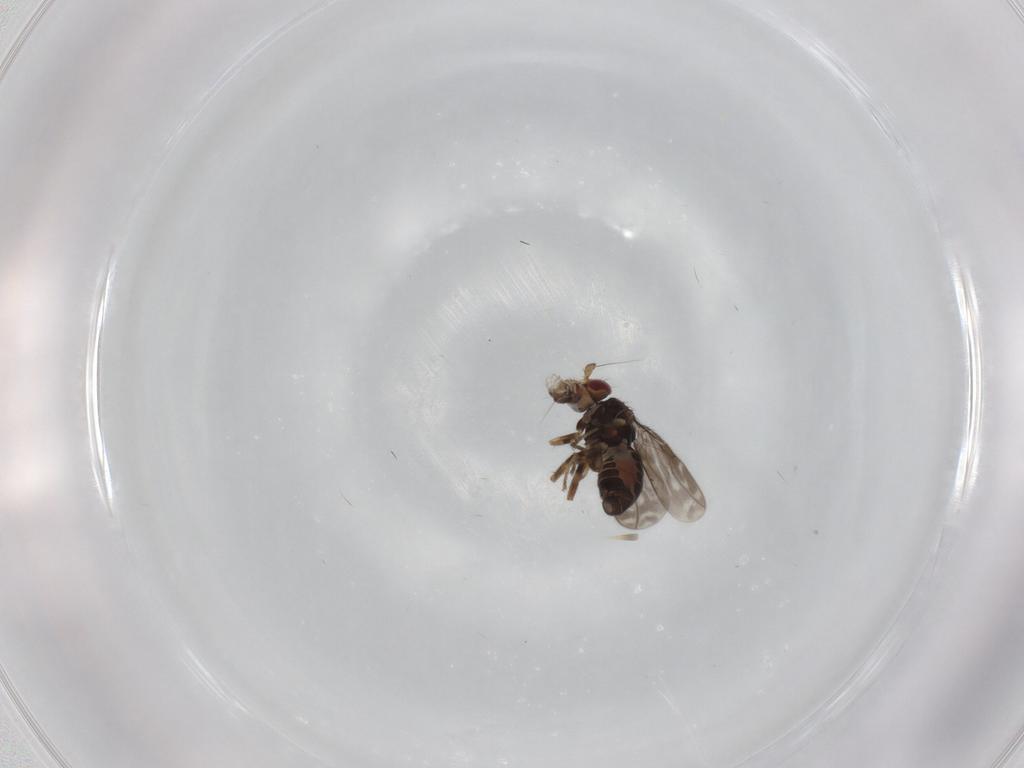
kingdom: Animalia
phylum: Arthropoda
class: Insecta
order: Diptera
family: Sphaeroceridae
